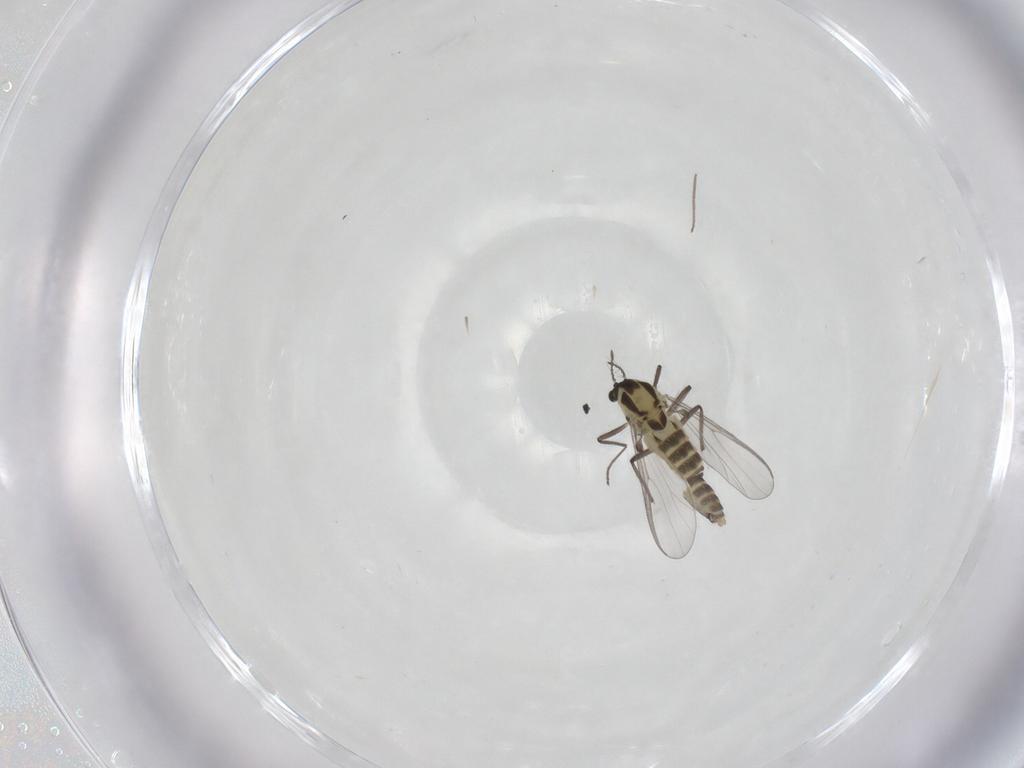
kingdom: Animalia
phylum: Arthropoda
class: Insecta
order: Diptera
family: Chironomidae
